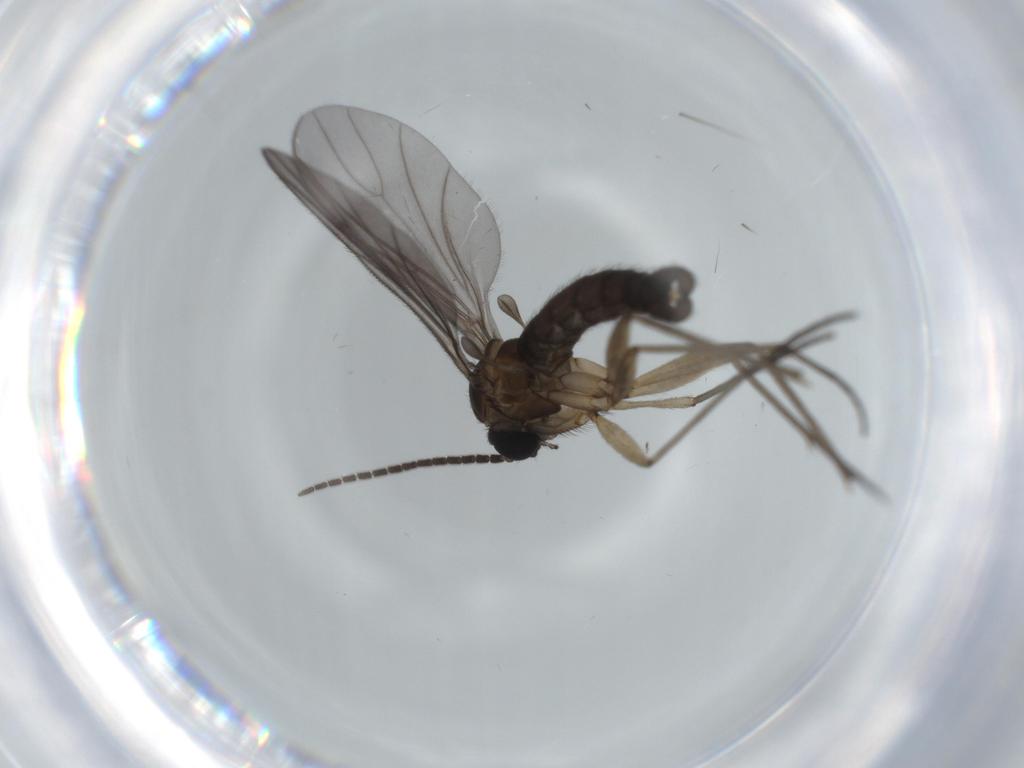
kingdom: Animalia
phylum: Arthropoda
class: Insecta
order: Diptera
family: Sciaridae
